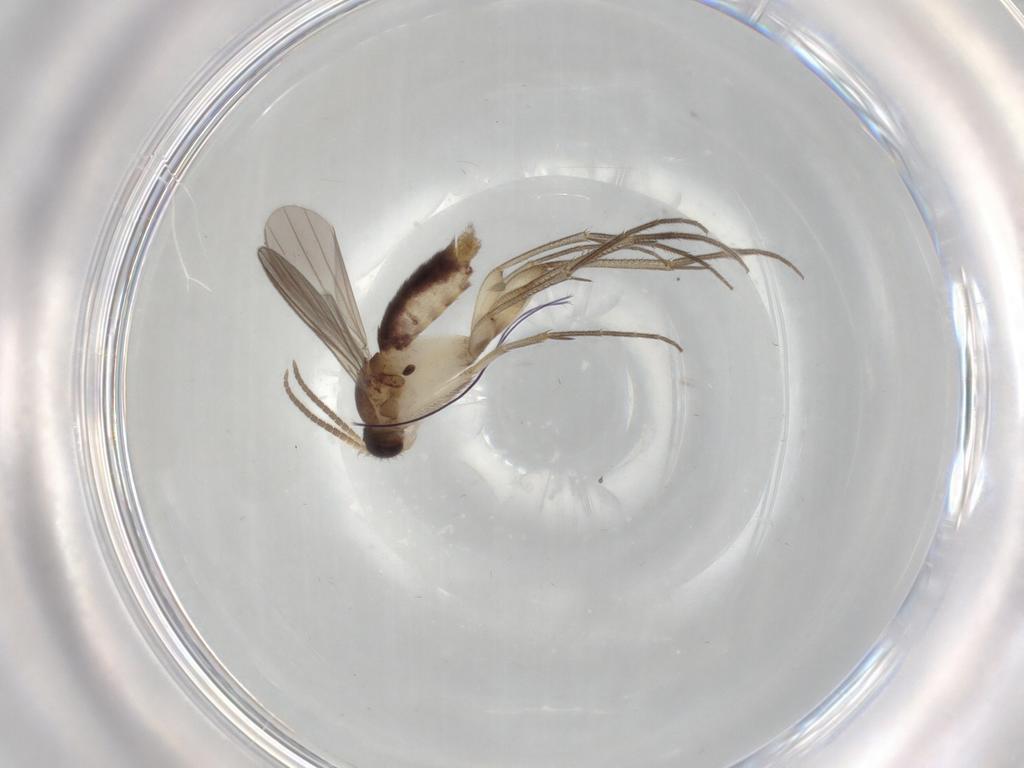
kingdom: Animalia
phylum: Arthropoda
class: Insecta
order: Diptera
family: Mycetophilidae
